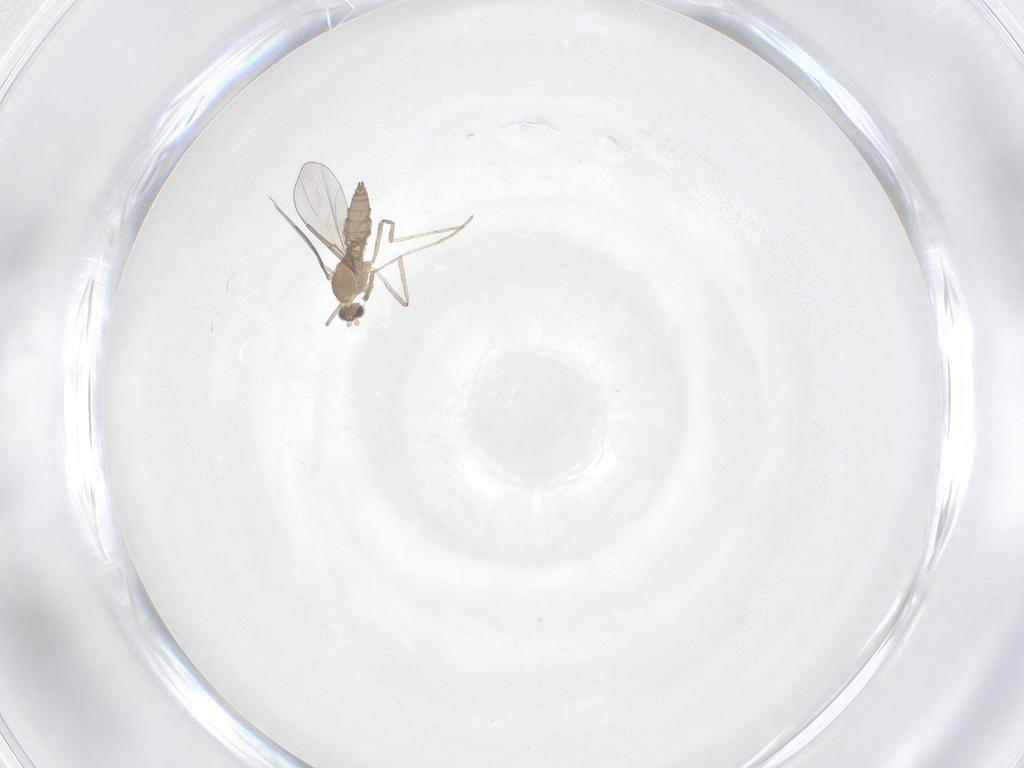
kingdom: Animalia
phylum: Arthropoda
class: Insecta
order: Diptera
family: Cecidomyiidae
